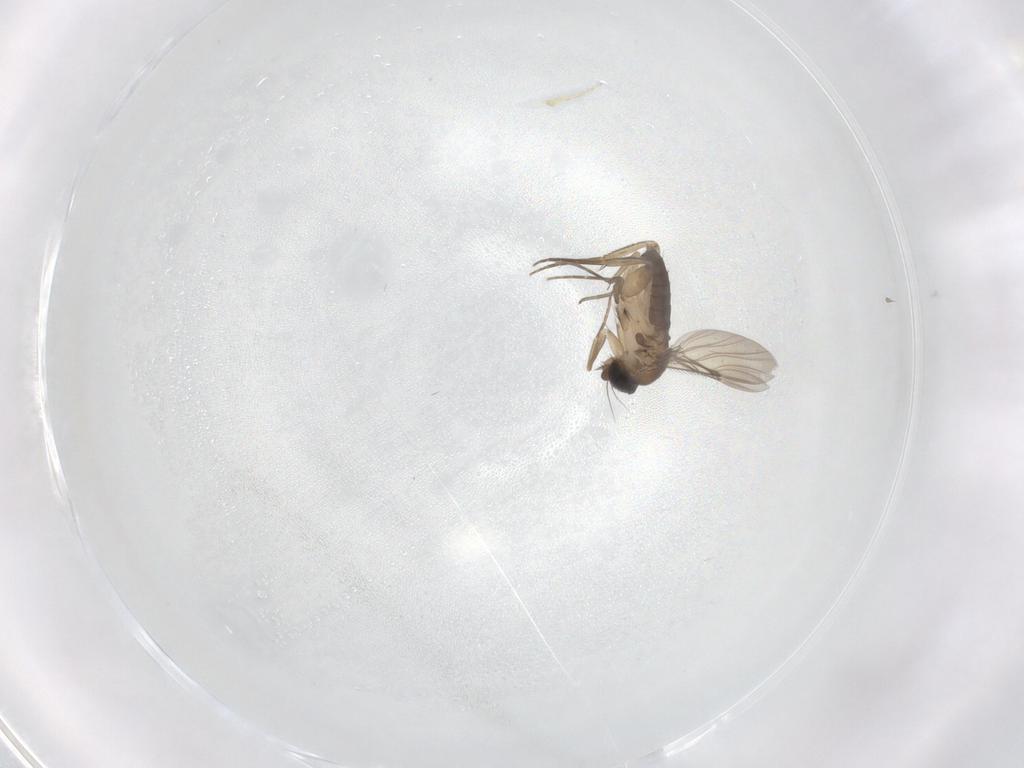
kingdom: Animalia
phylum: Arthropoda
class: Insecta
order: Diptera
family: Phoridae
